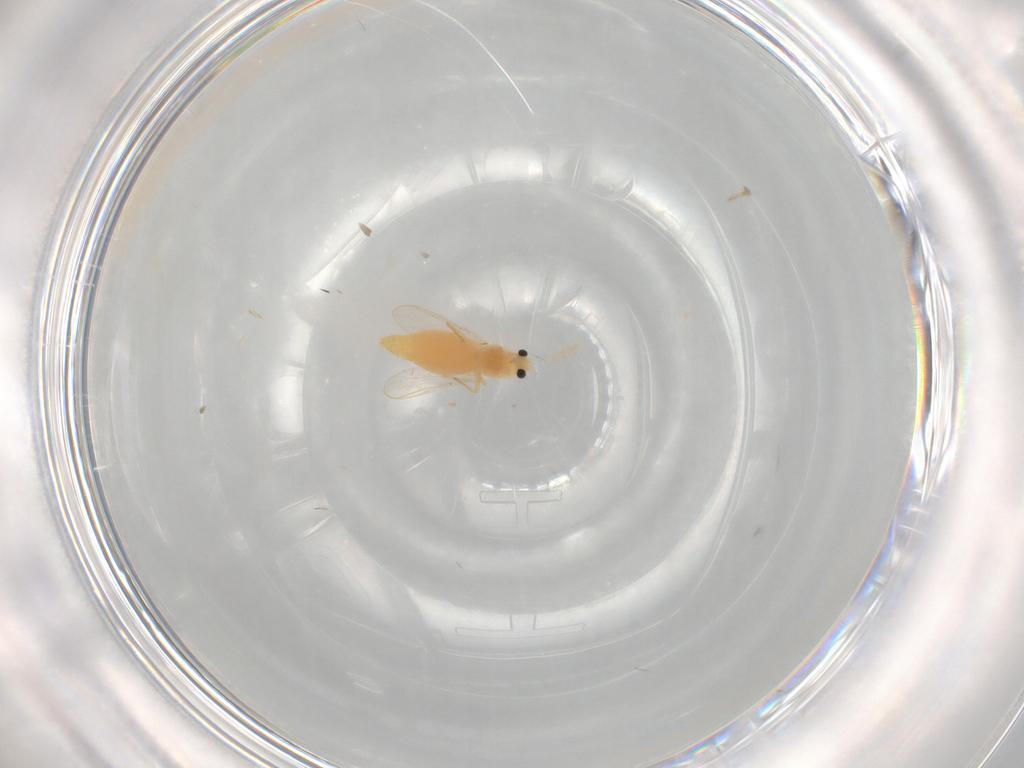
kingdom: Animalia
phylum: Arthropoda
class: Insecta
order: Diptera
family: Chironomidae
